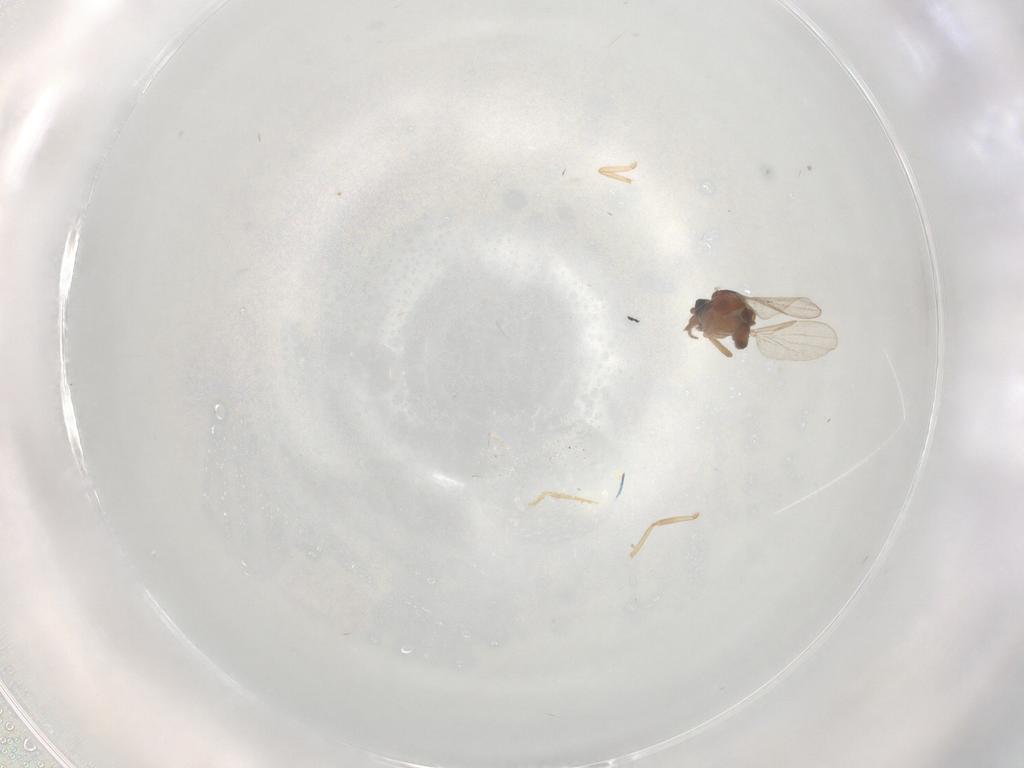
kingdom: Animalia
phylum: Arthropoda
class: Insecta
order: Diptera
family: Ceratopogonidae
